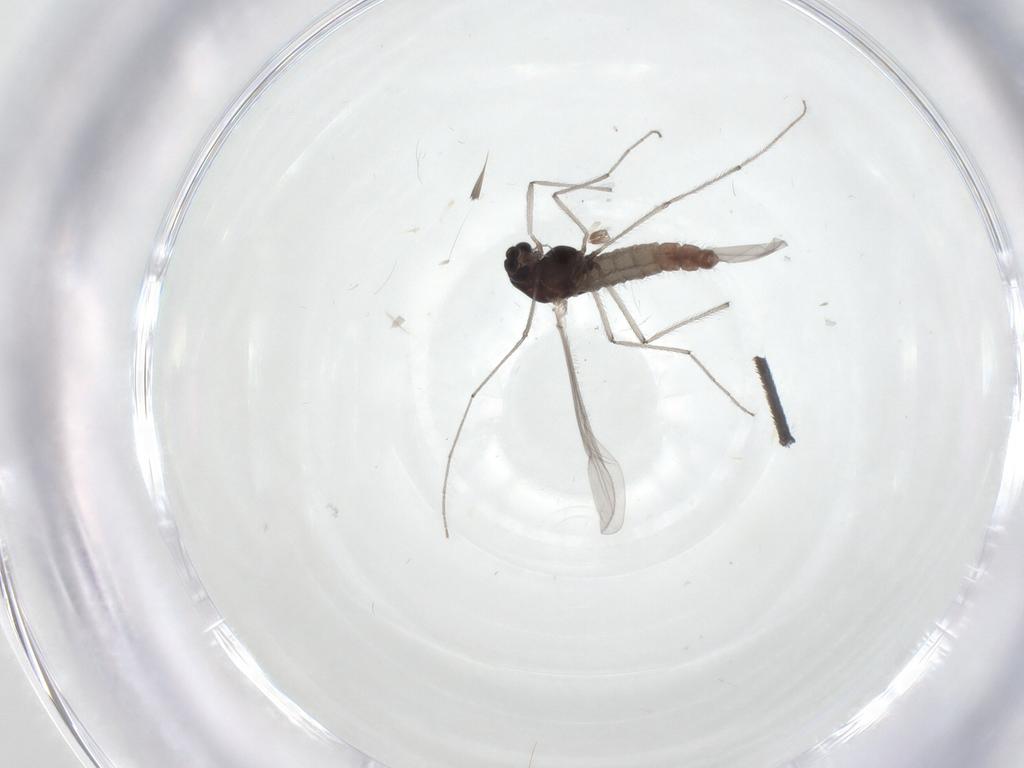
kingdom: Animalia
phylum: Arthropoda
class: Insecta
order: Diptera
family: Chironomidae
